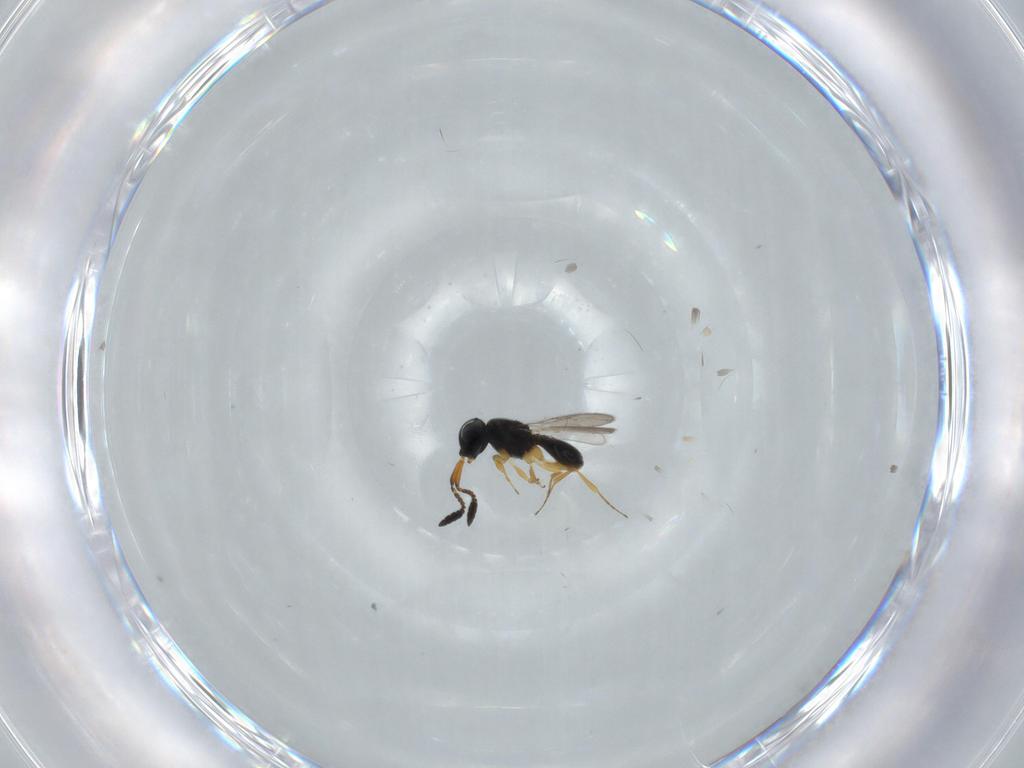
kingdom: Animalia
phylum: Arthropoda
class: Insecta
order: Hymenoptera
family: Scelionidae
